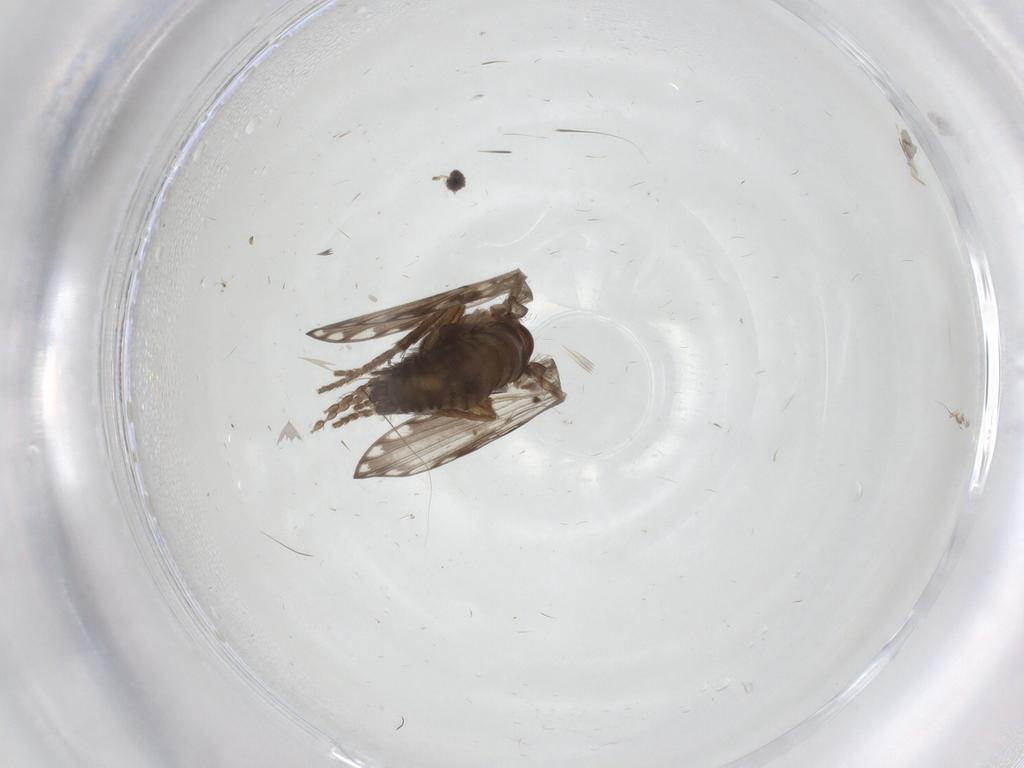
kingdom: Animalia
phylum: Arthropoda
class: Insecta
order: Diptera
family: Psychodidae
